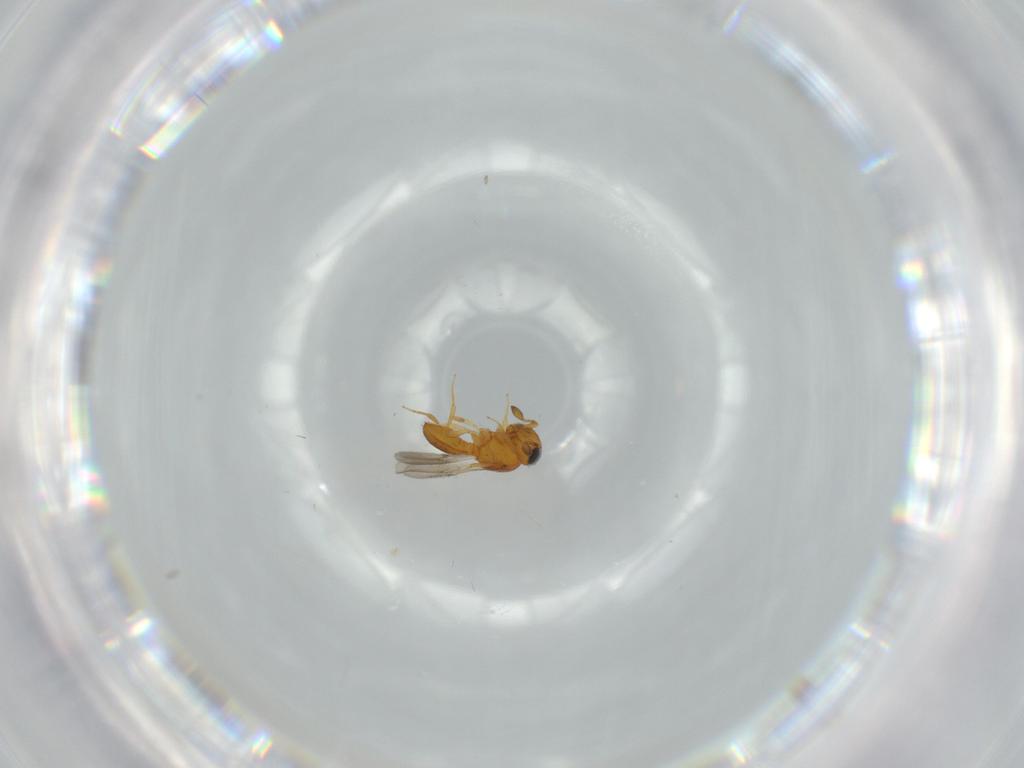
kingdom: Animalia
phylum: Arthropoda
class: Insecta
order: Hymenoptera
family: Scelionidae
